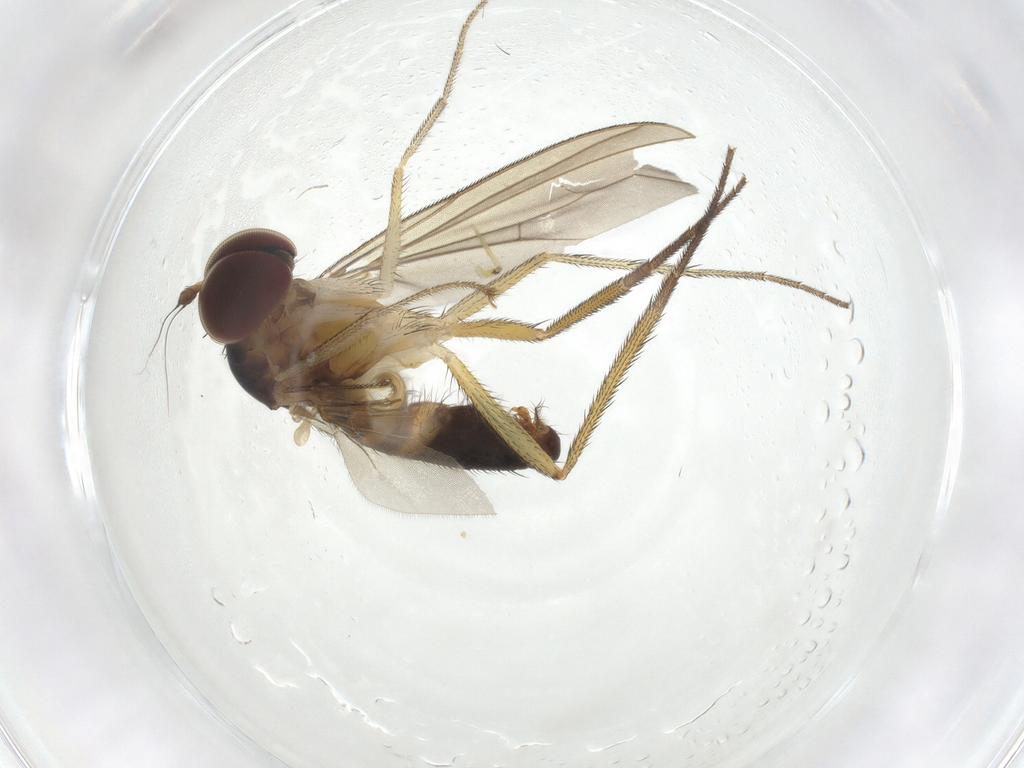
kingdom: Animalia
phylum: Arthropoda
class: Insecta
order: Diptera
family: Dolichopodidae
